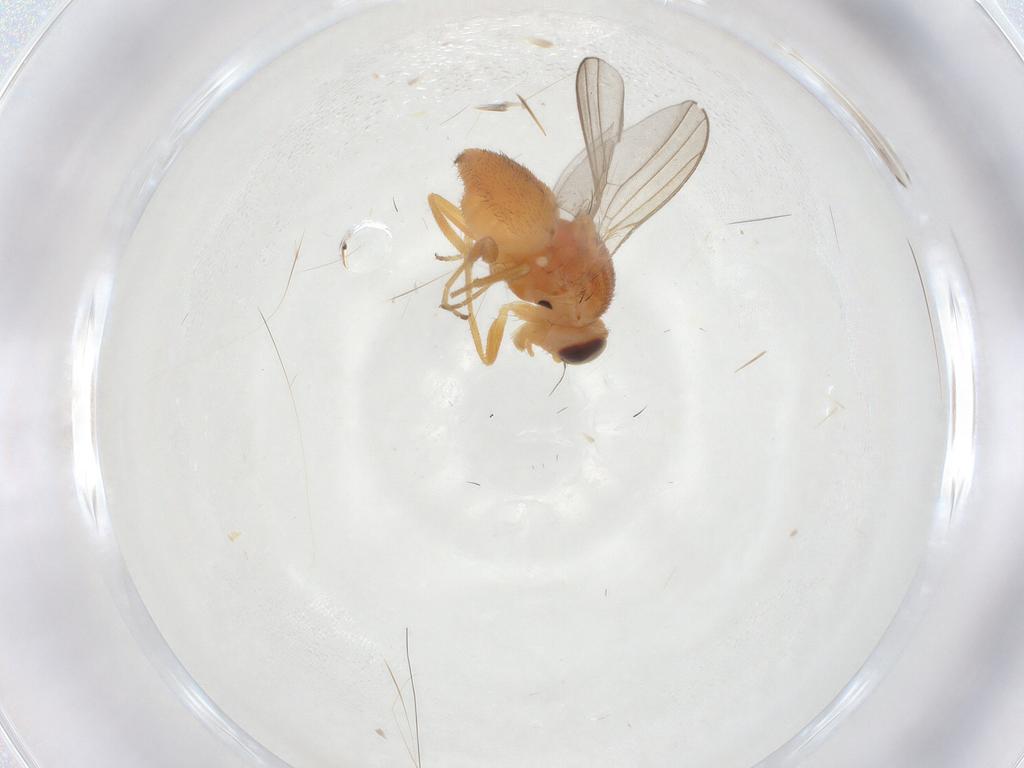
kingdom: Animalia
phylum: Arthropoda
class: Insecta
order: Diptera
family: Chloropidae
